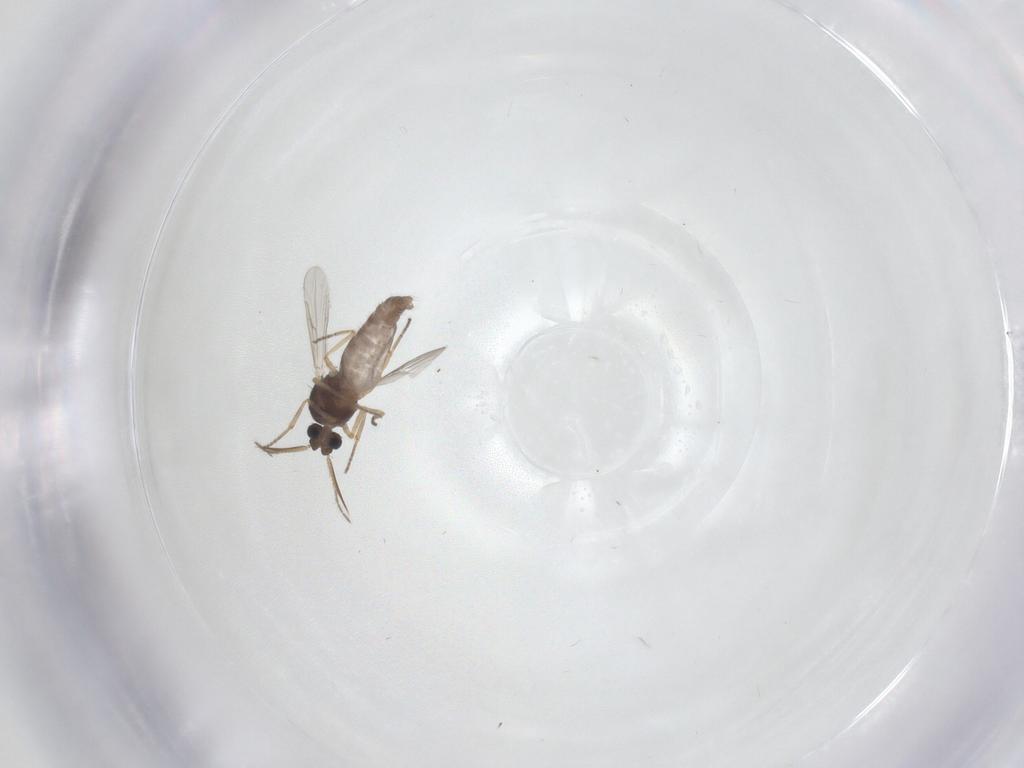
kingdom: Animalia
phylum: Arthropoda
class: Insecta
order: Diptera
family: Ceratopogonidae
